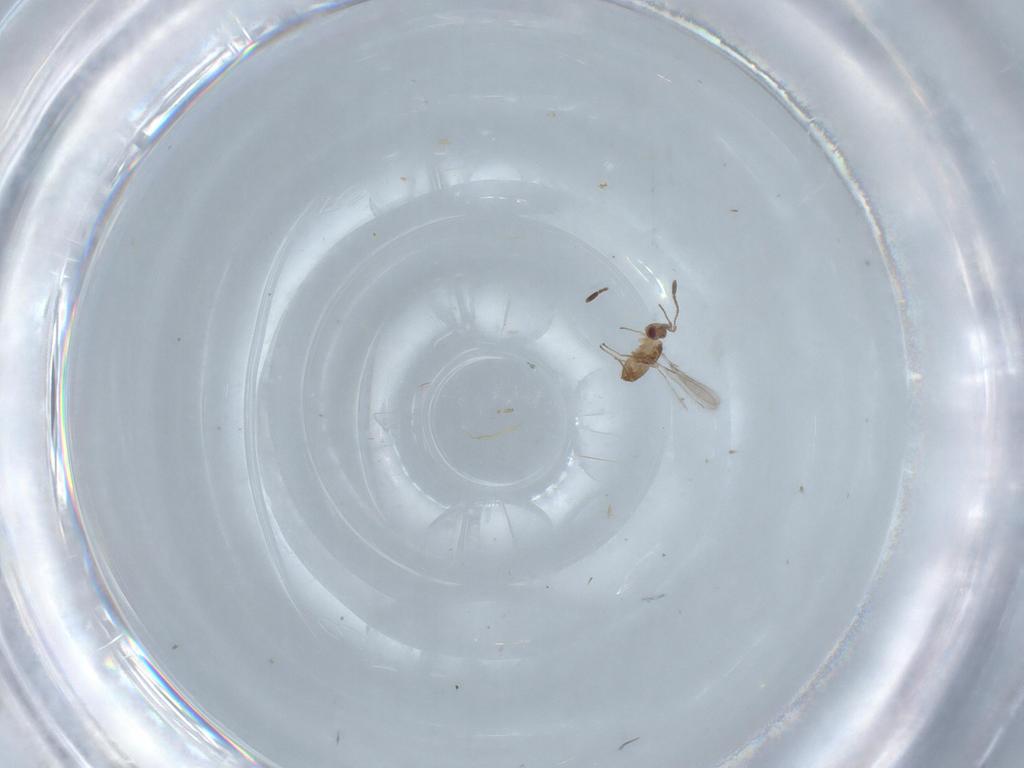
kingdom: Animalia
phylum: Arthropoda
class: Insecta
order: Hymenoptera
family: Mymaridae
